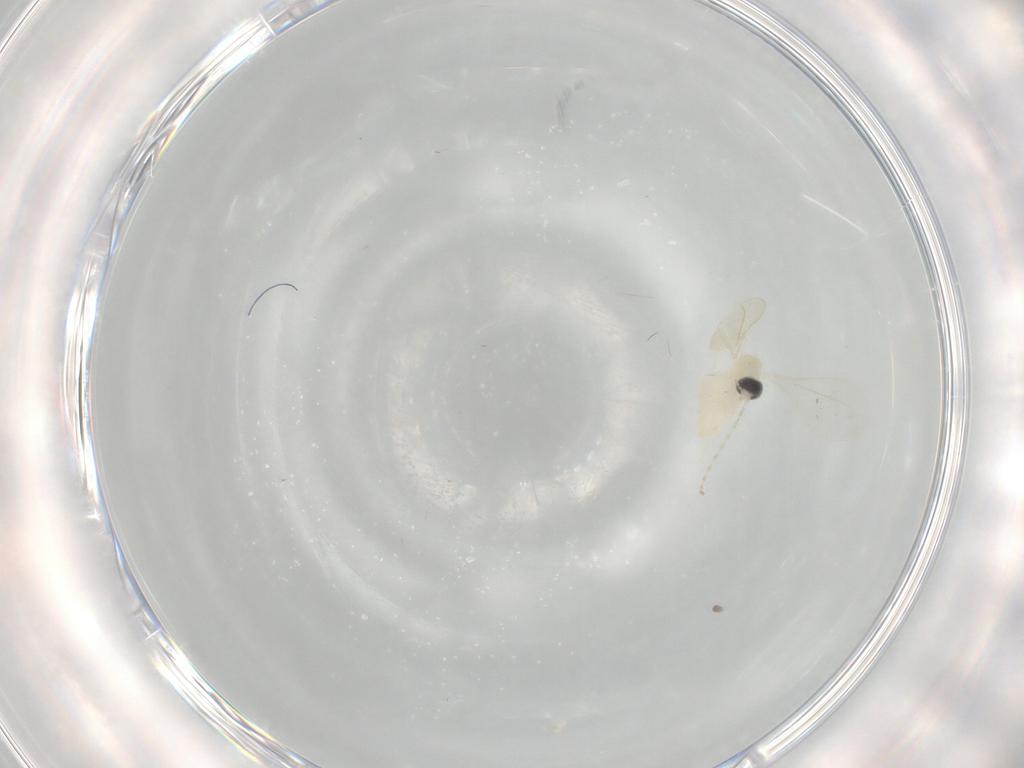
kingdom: Animalia
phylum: Arthropoda
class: Insecta
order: Diptera
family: Cecidomyiidae
